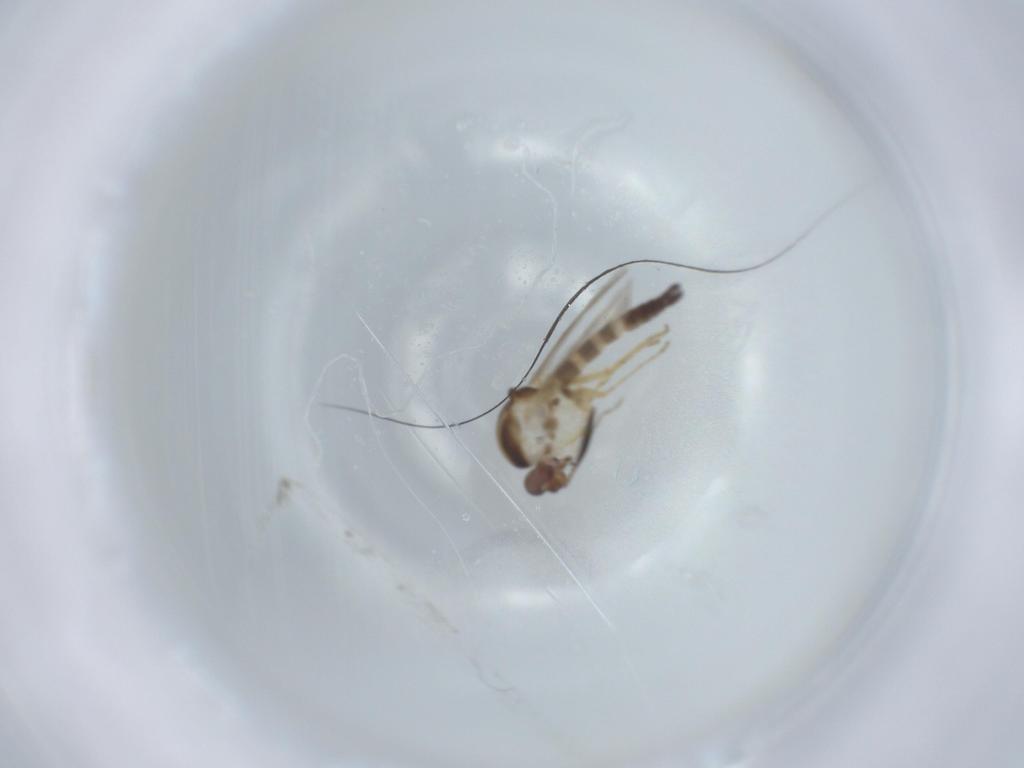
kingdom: Animalia
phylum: Arthropoda
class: Insecta
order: Diptera
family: Ceratopogonidae
